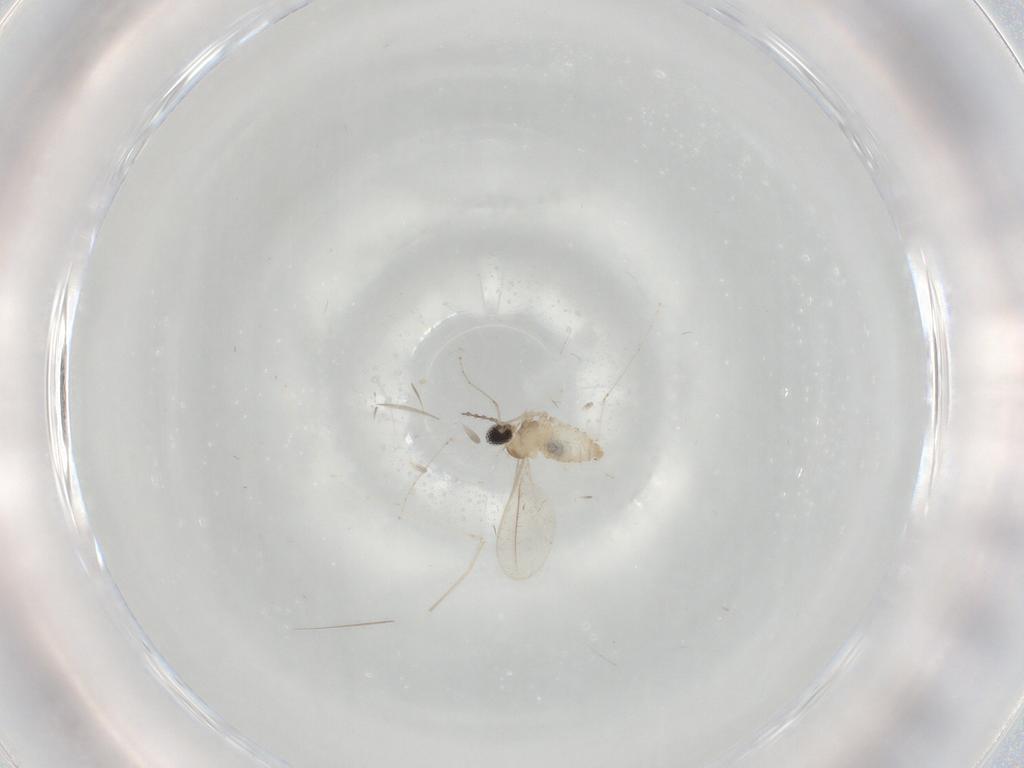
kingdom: Animalia
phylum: Arthropoda
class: Insecta
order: Diptera
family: Cecidomyiidae
